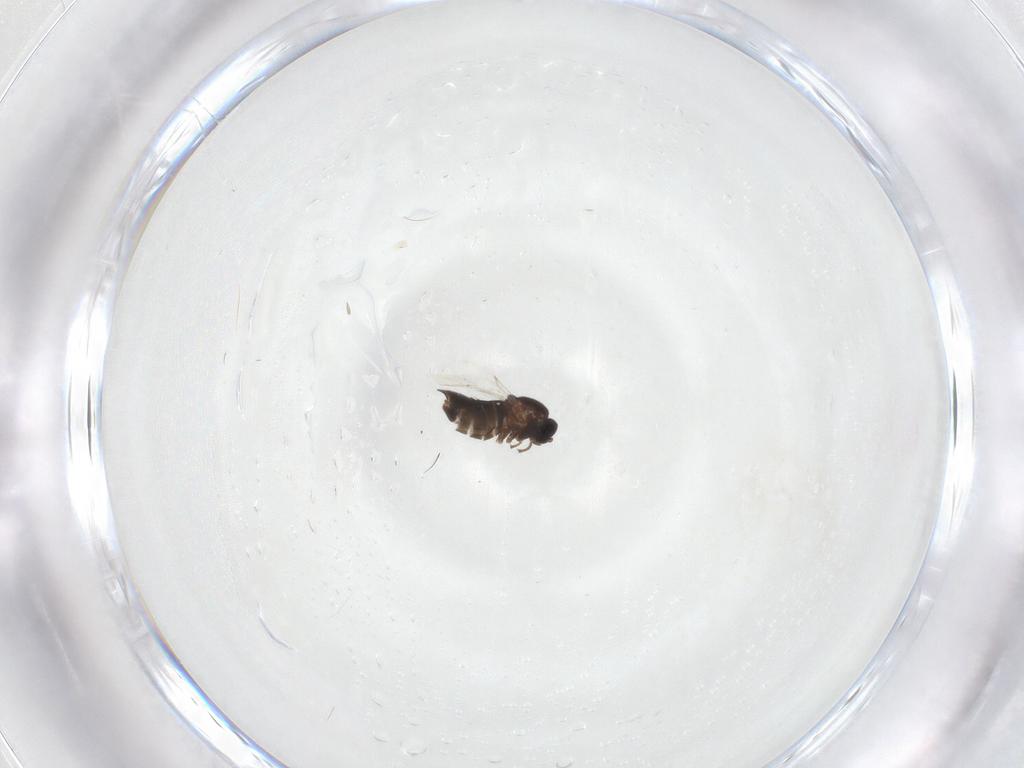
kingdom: Animalia
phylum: Arthropoda
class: Insecta
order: Diptera
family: Scatopsidae
